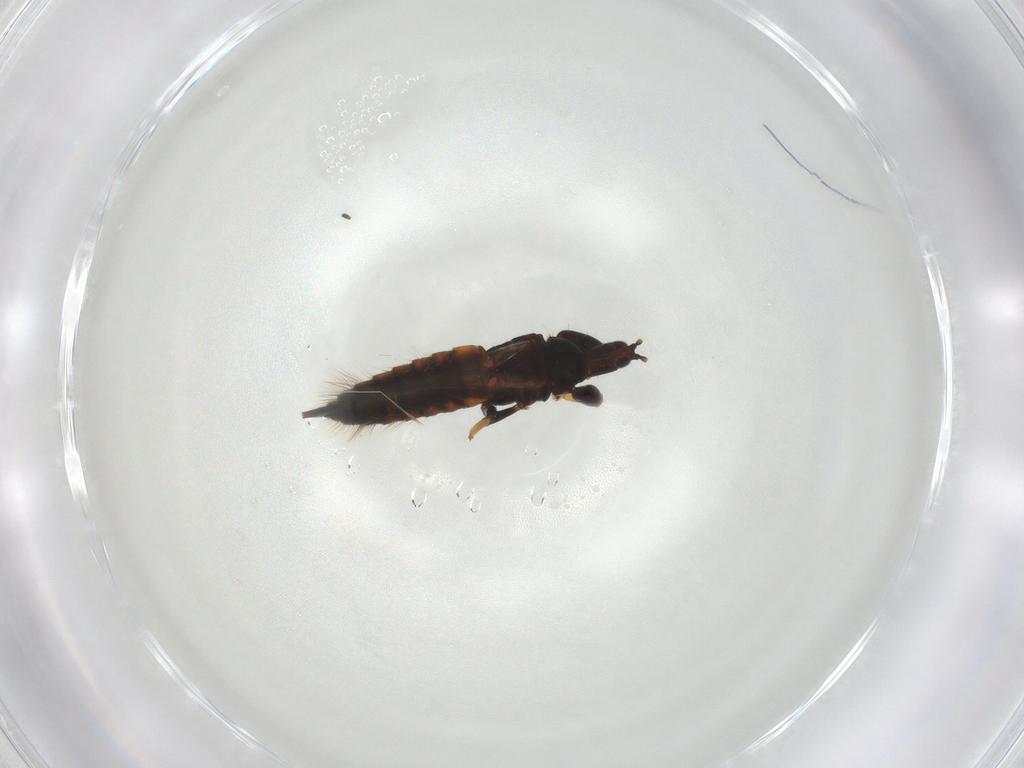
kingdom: Animalia
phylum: Arthropoda
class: Insecta
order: Thysanoptera
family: Phlaeothripidae
